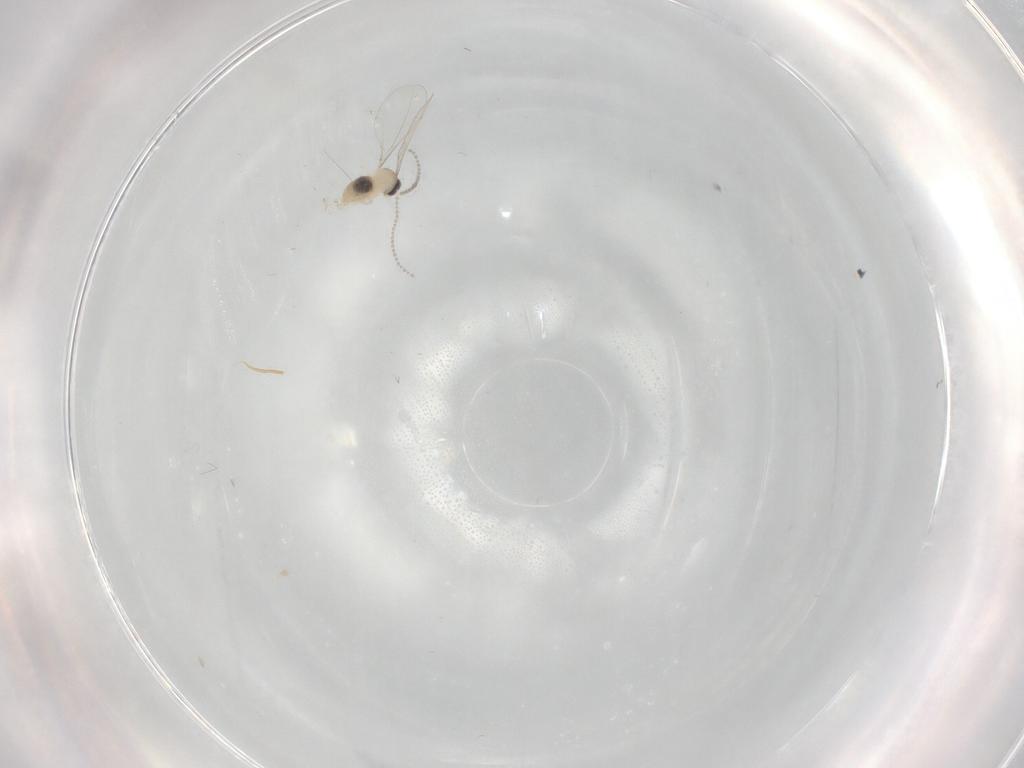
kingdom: Animalia
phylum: Arthropoda
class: Insecta
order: Diptera
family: Cecidomyiidae
